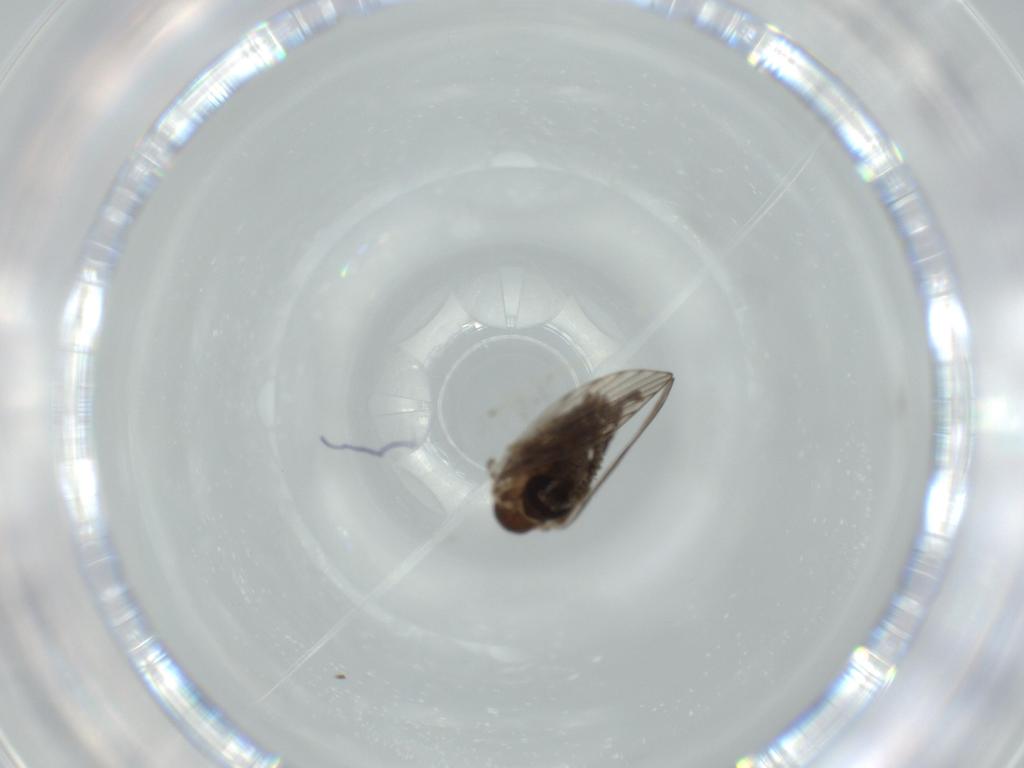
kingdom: Animalia
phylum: Arthropoda
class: Insecta
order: Diptera
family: Psychodidae
